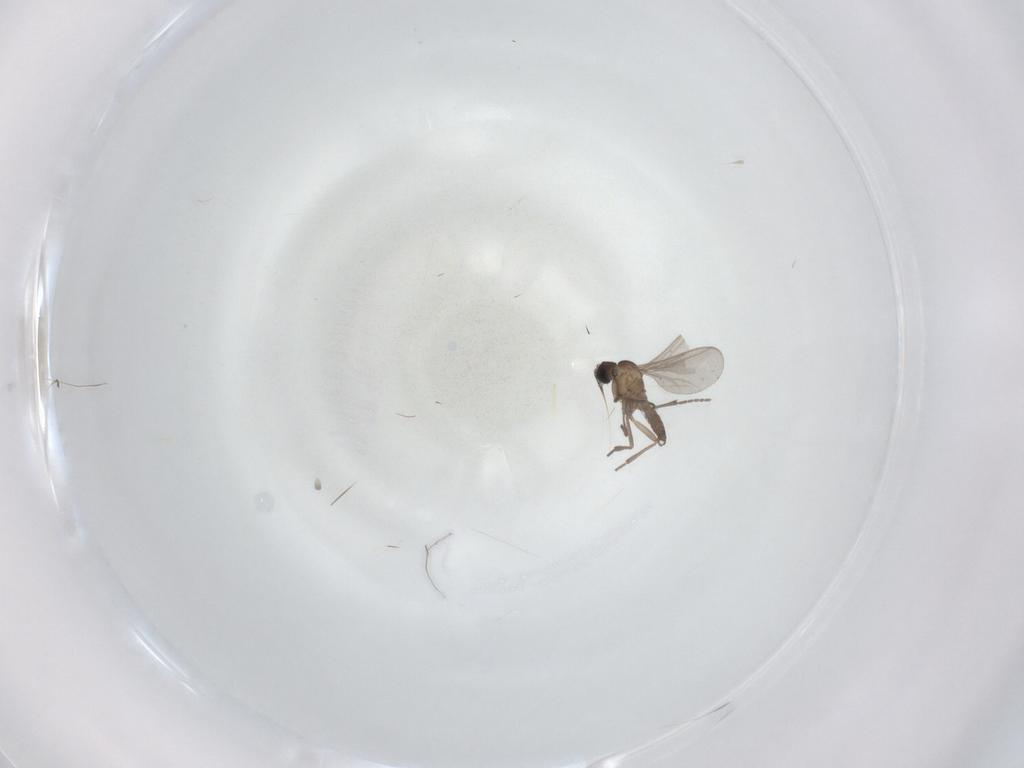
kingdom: Animalia
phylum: Arthropoda
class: Insecta
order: Diptera
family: Sciaridae
